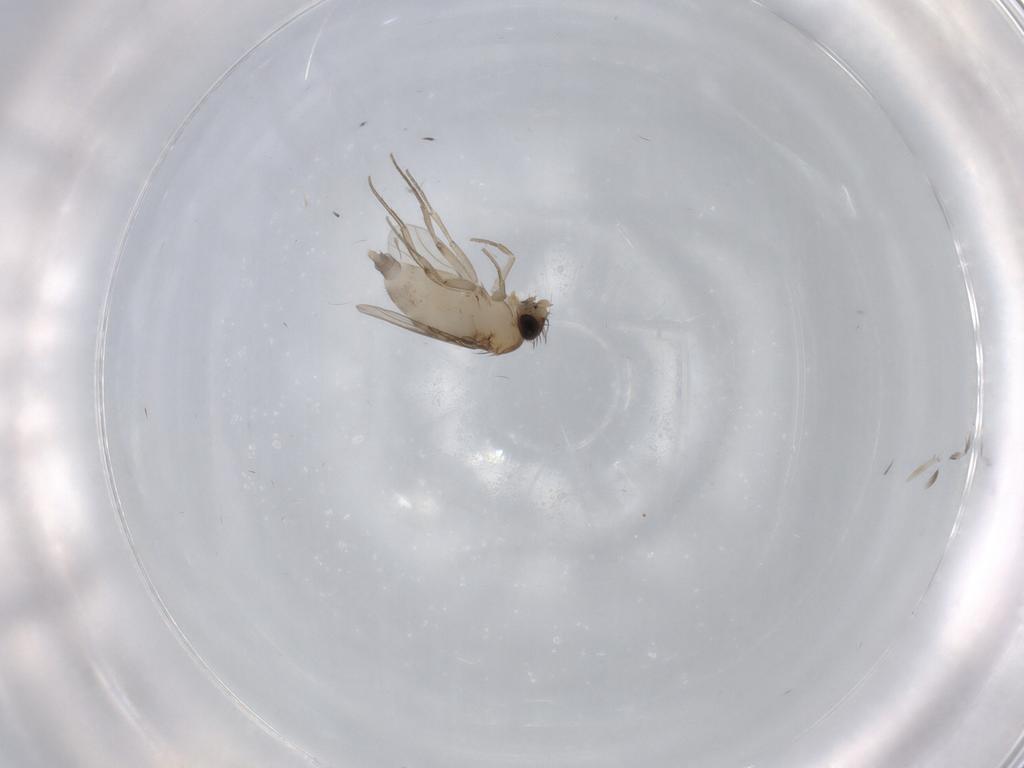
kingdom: Animalia
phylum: Arthropoda
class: Insecta
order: Diptera
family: Phoridae
